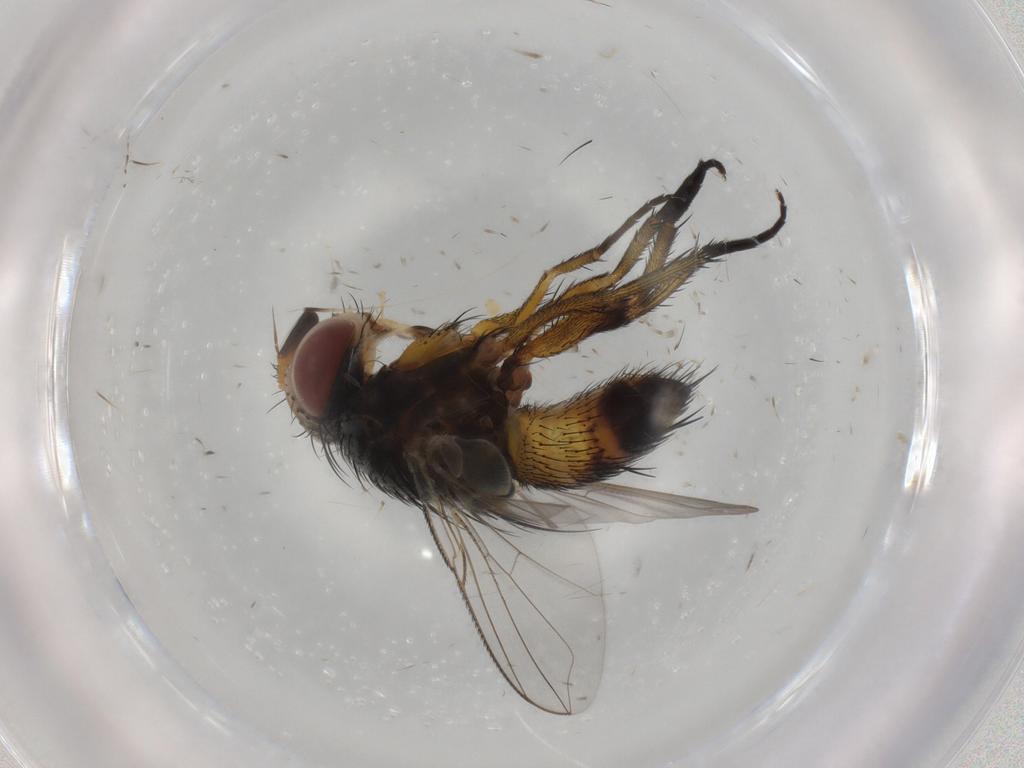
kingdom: Animalia
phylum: Arthropoda
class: Insecta
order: Diptera
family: Tachinidae
